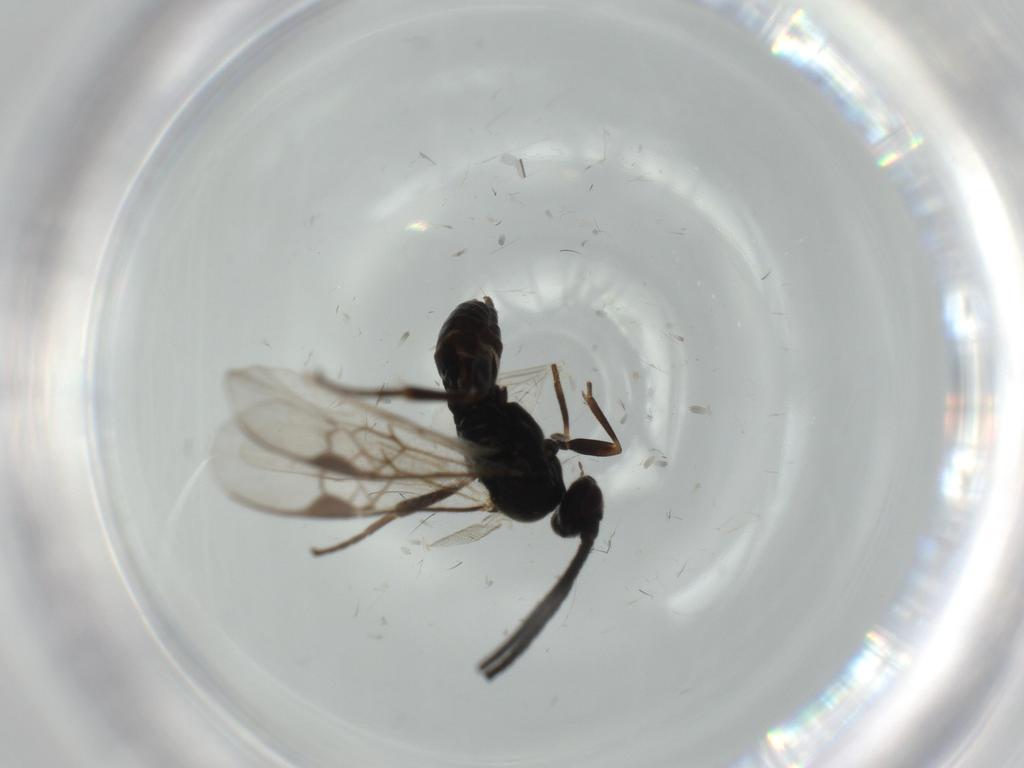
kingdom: Animalia
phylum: Arthropoda
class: Insecta
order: Hymenoptera
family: Braconidae
